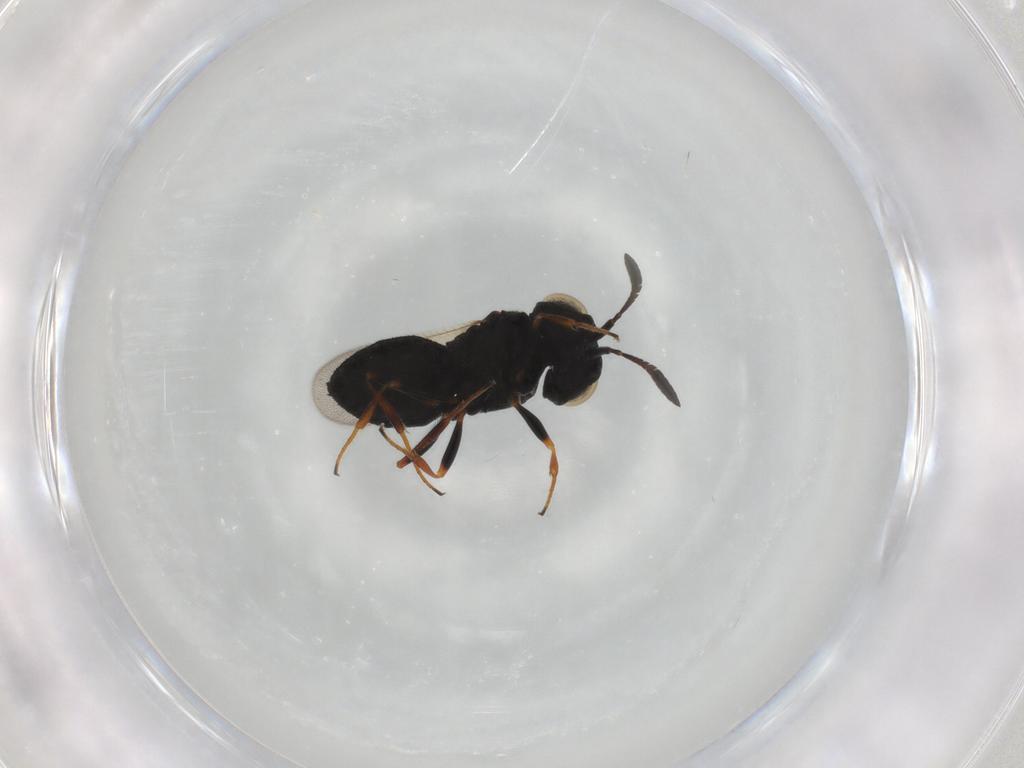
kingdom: Animalia
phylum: Arthropoda
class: Insecta
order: Hymenoptera
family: Scelionidae
